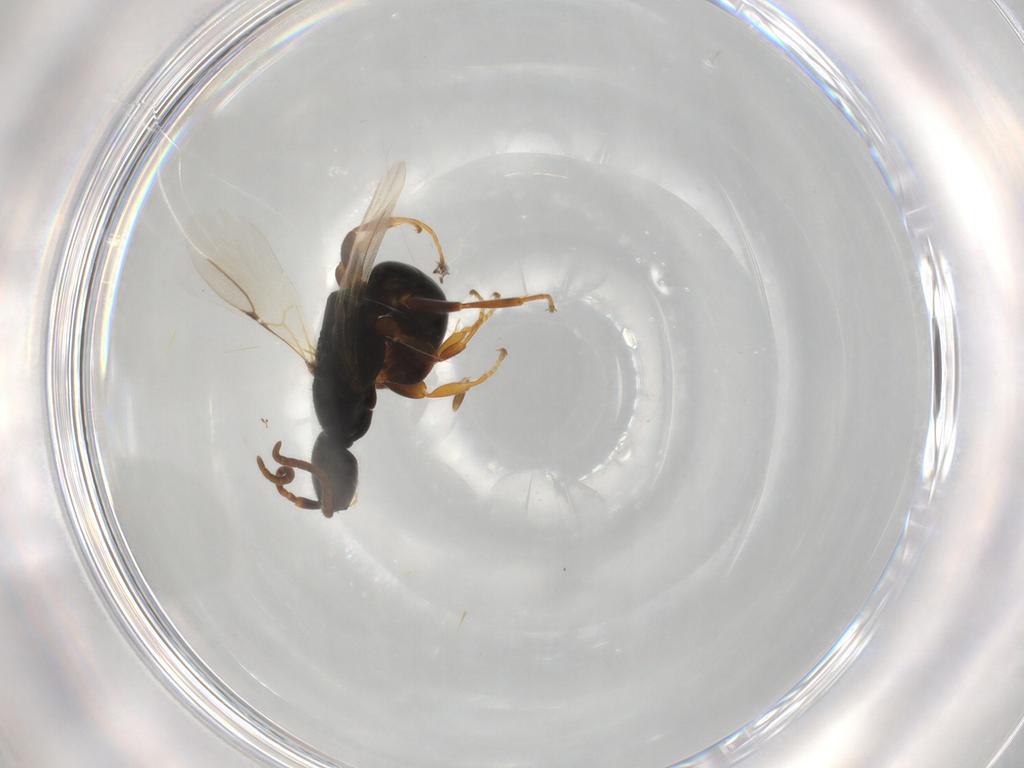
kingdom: Animalia
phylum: Arthropoda
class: Insecta
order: Hymenoptera
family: Bethylidae
